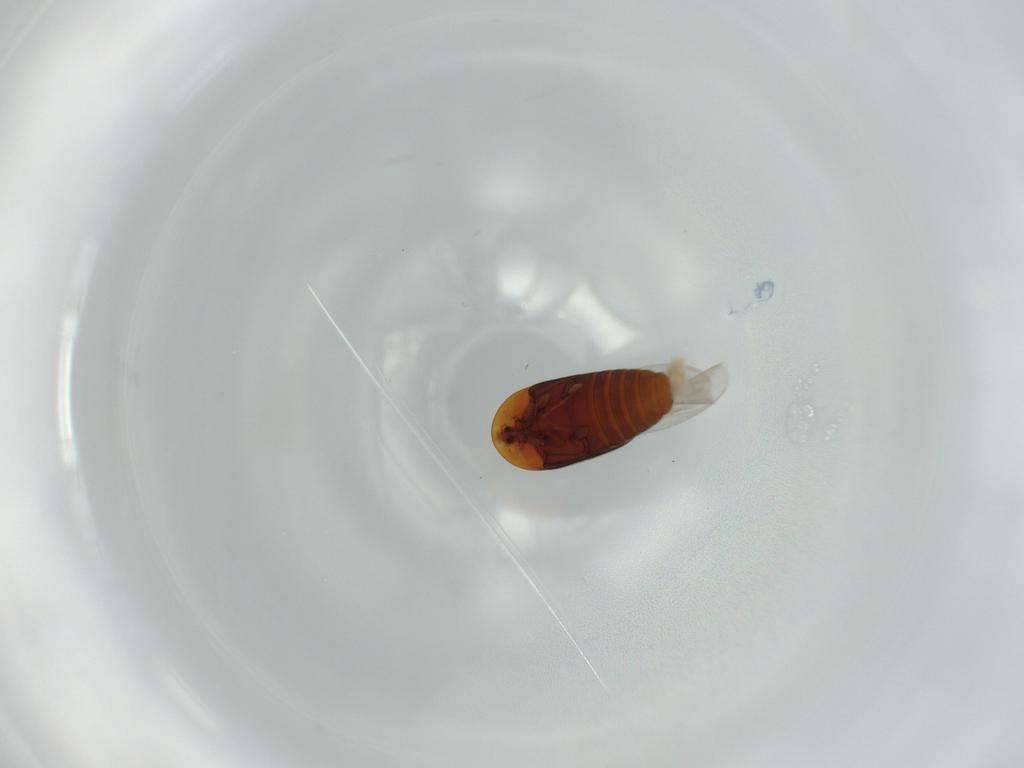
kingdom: Animalia
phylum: Arthropoda
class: Insecta
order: Coleoptera
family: Corylophidae
